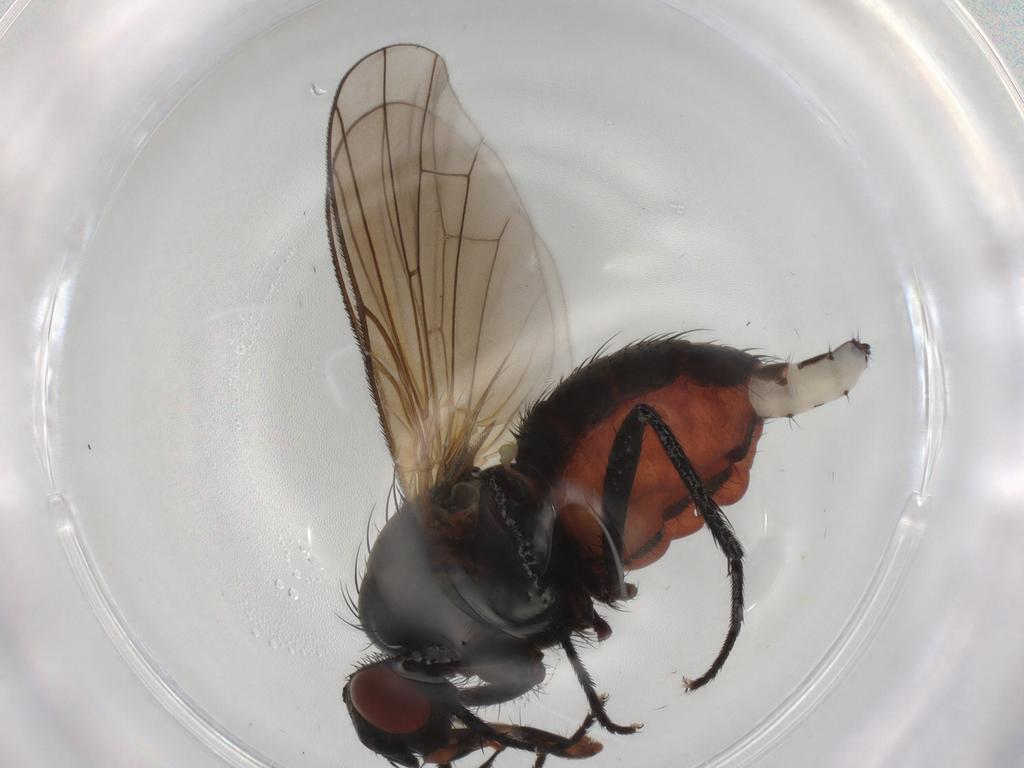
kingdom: Animalia
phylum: Arthropoda
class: Insecta
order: Diptera
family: Anthomyiidae
